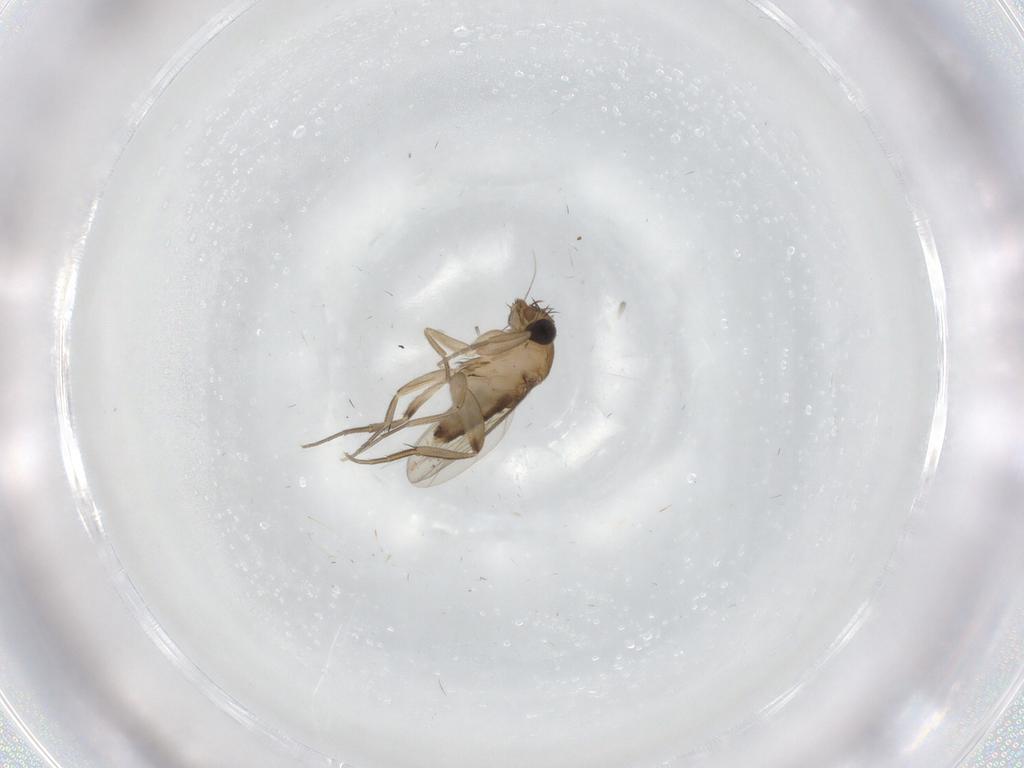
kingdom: Animalia
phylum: Arthropoda
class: Insecta
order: Diptera
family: Phoridae
